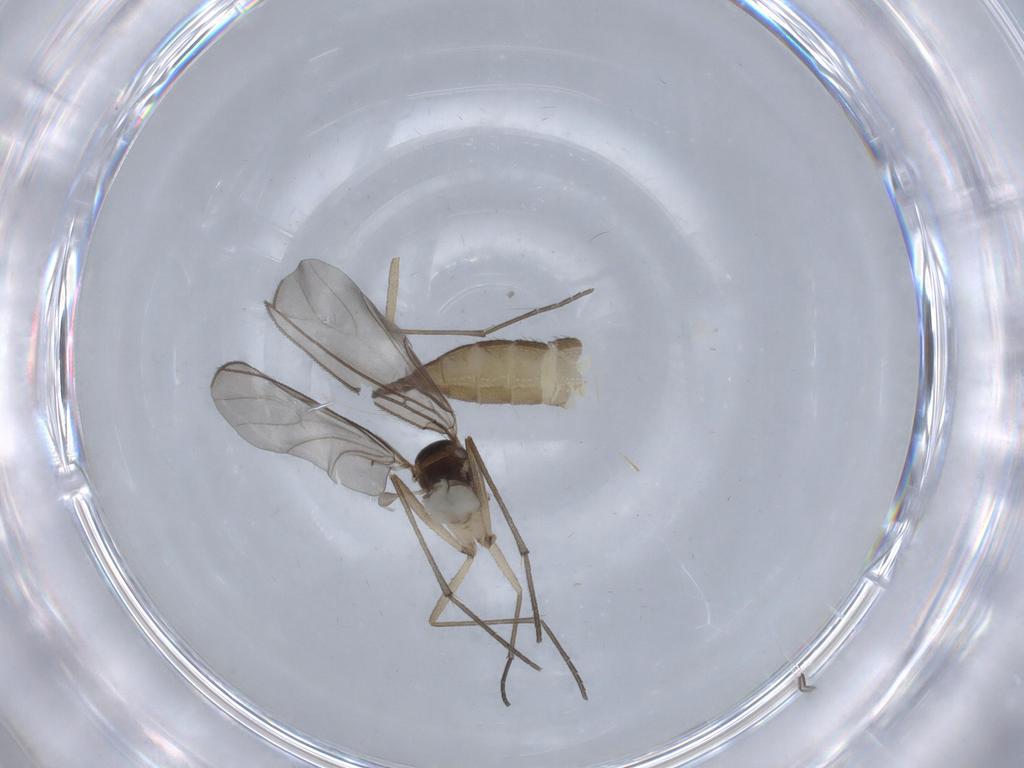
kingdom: Animalia
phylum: Arthropoda
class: Insecta
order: Diptera
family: Sciaridae
